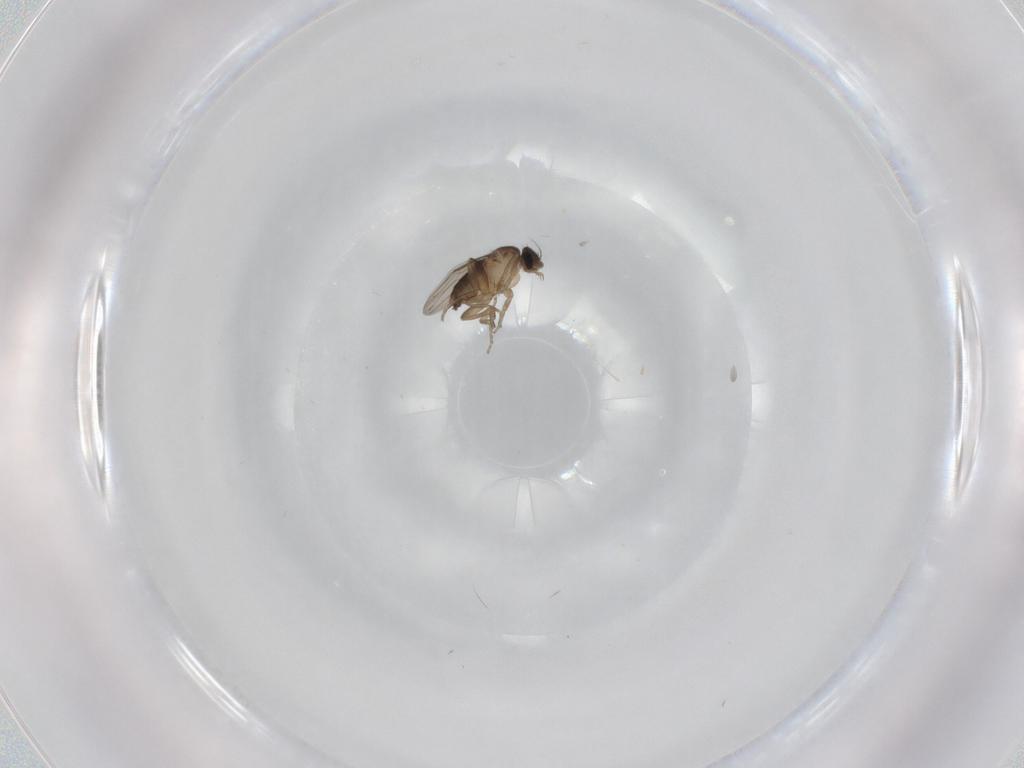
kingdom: Animalia
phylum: Arthropoda
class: Insecta
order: Diptera
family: Phoridae
